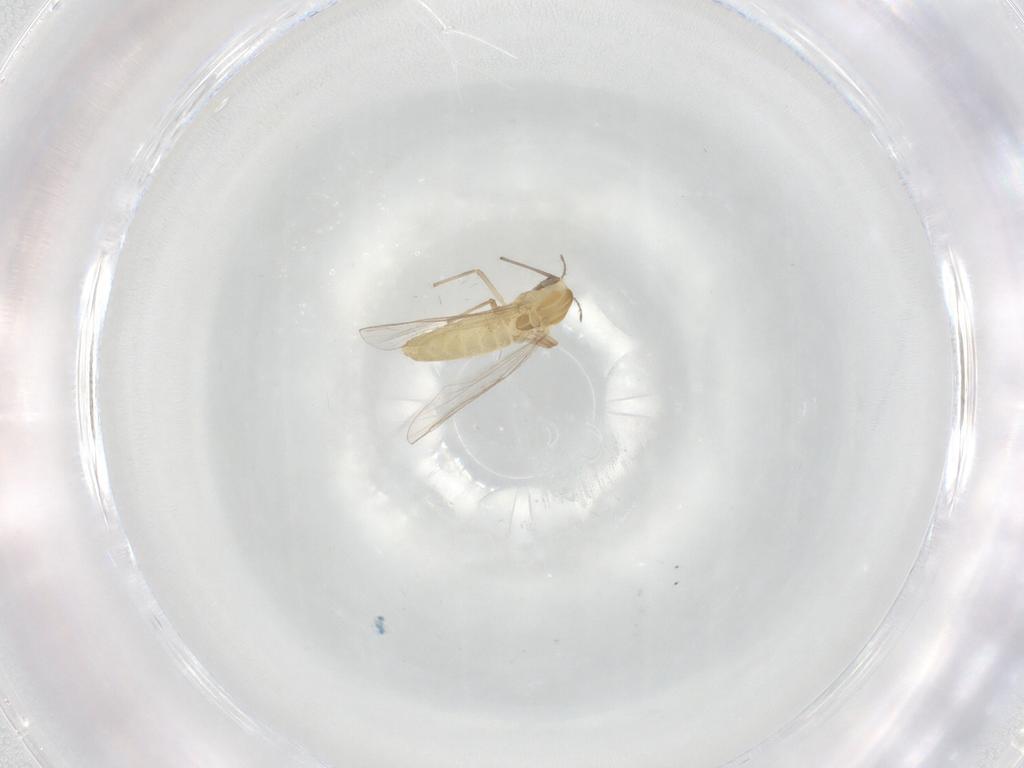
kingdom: Animalia
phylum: Arthropoda
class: Insecta
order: Diptera
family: Chironomidae
